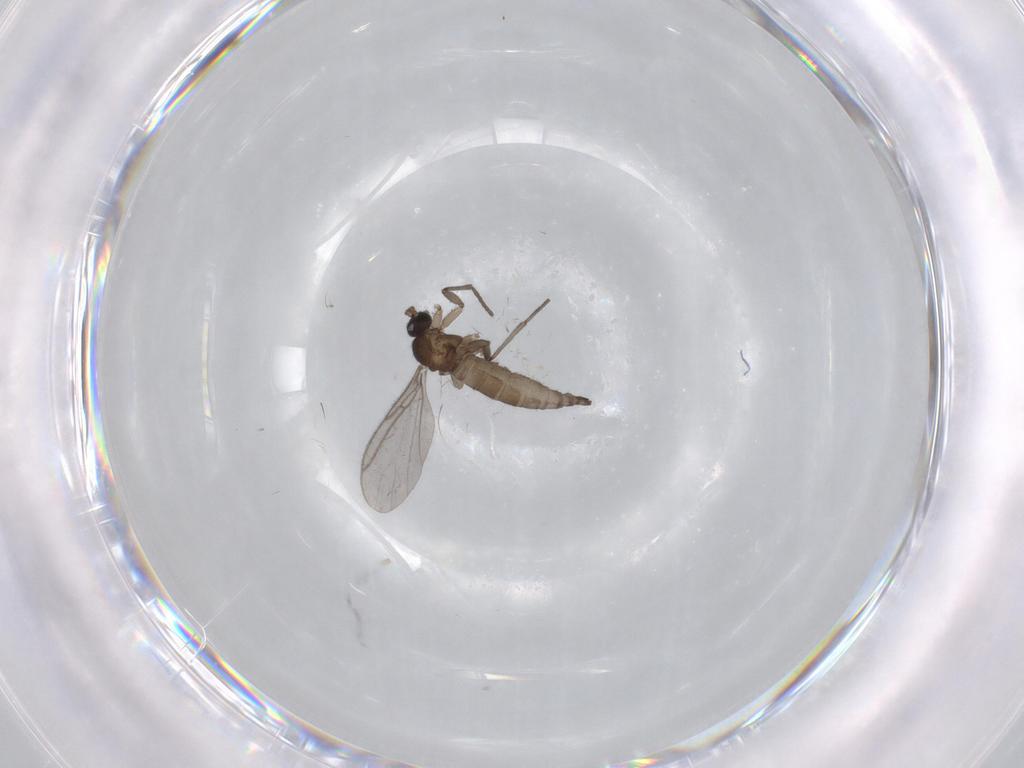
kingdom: Animalia
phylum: Arthropoda
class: Insecta
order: Diptera
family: Sciaridae
